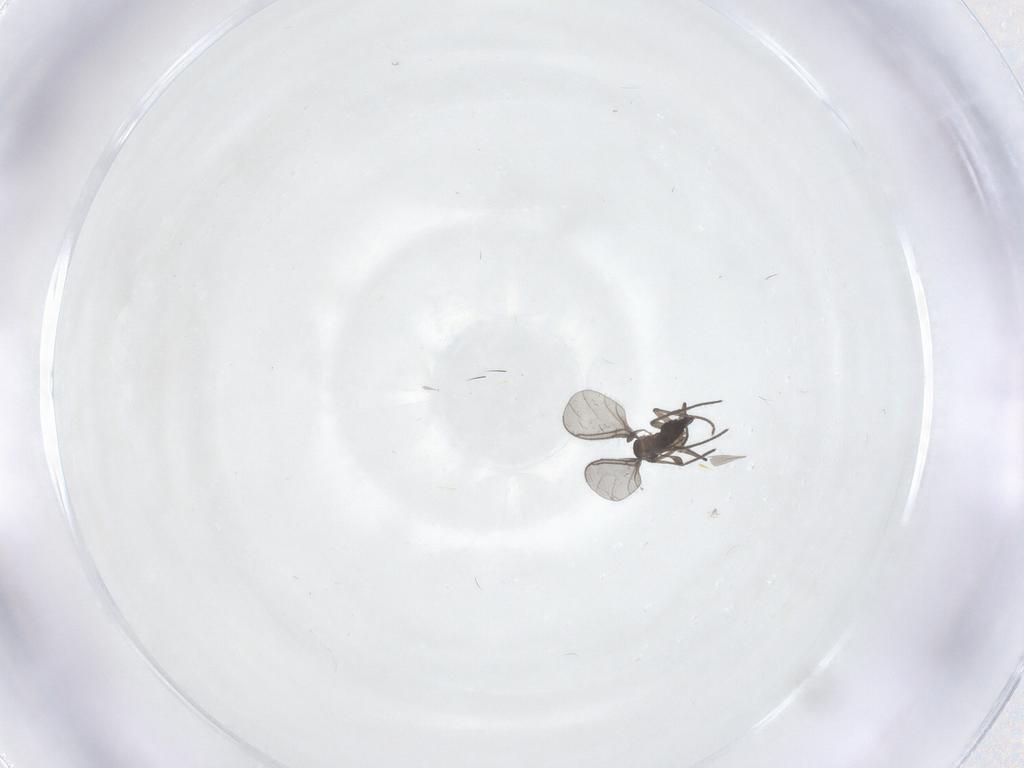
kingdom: Animalia
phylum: Arthropoda
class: Insecta
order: Diptera
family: Sciaridae
